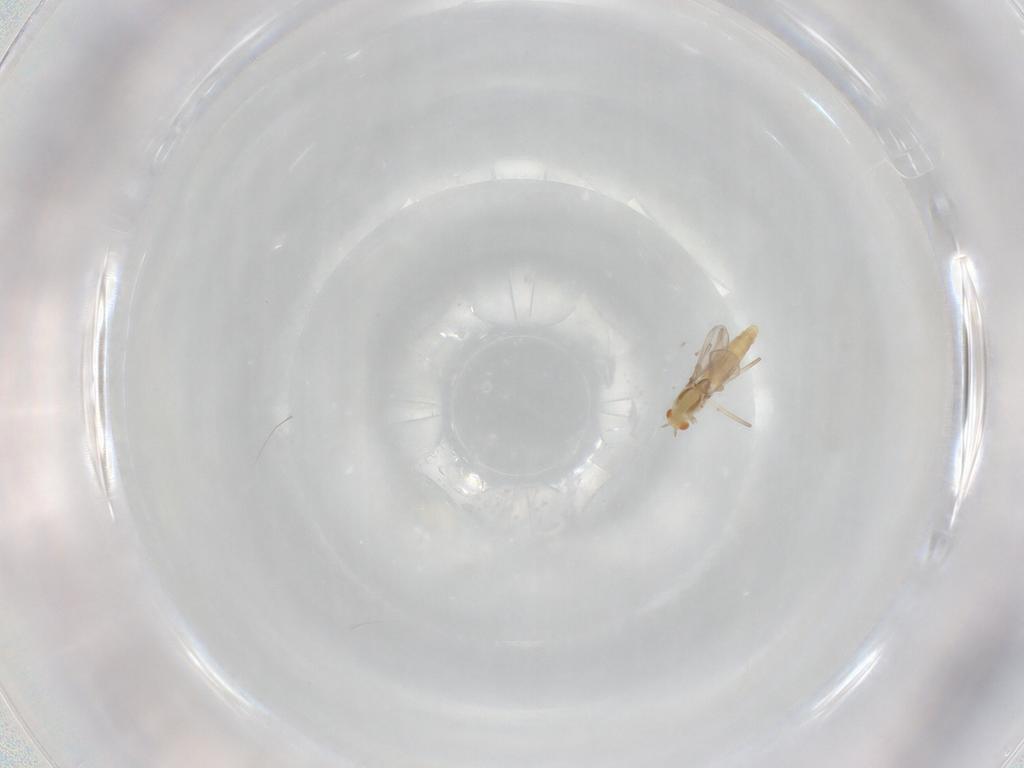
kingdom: Animalia
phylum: Arthropoda
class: Insecta
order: Diptera
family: Chironomidae
